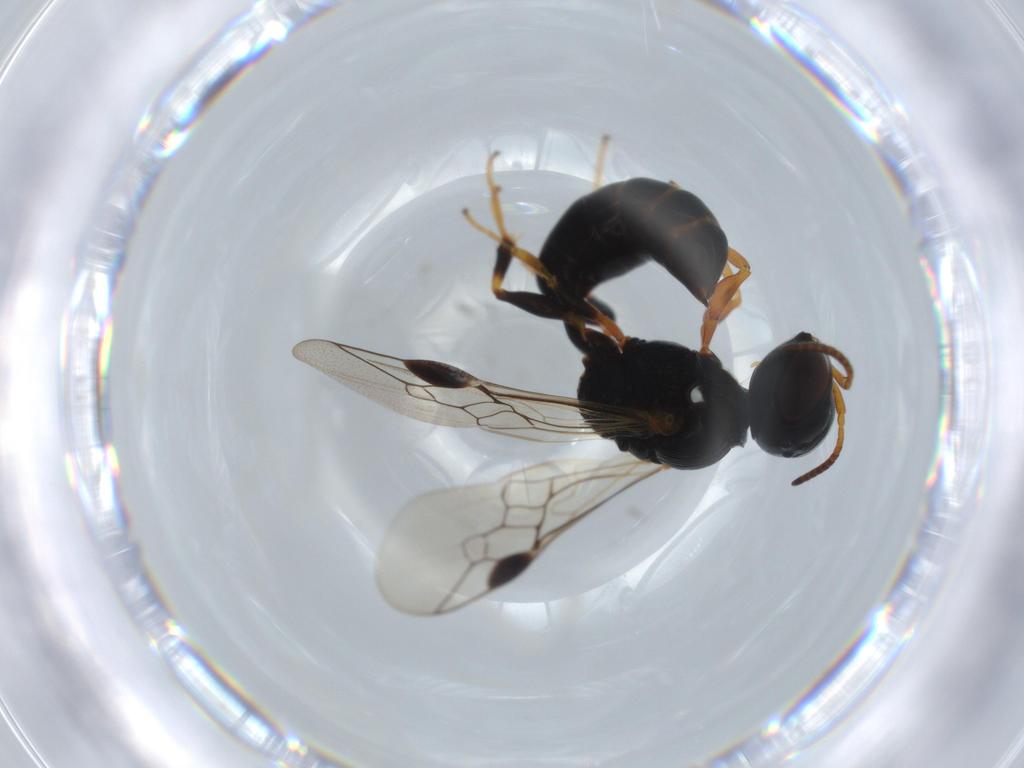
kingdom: Animalia
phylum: Arthropoda
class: Insecta
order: Hymenoptera
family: Pemphredonidae
